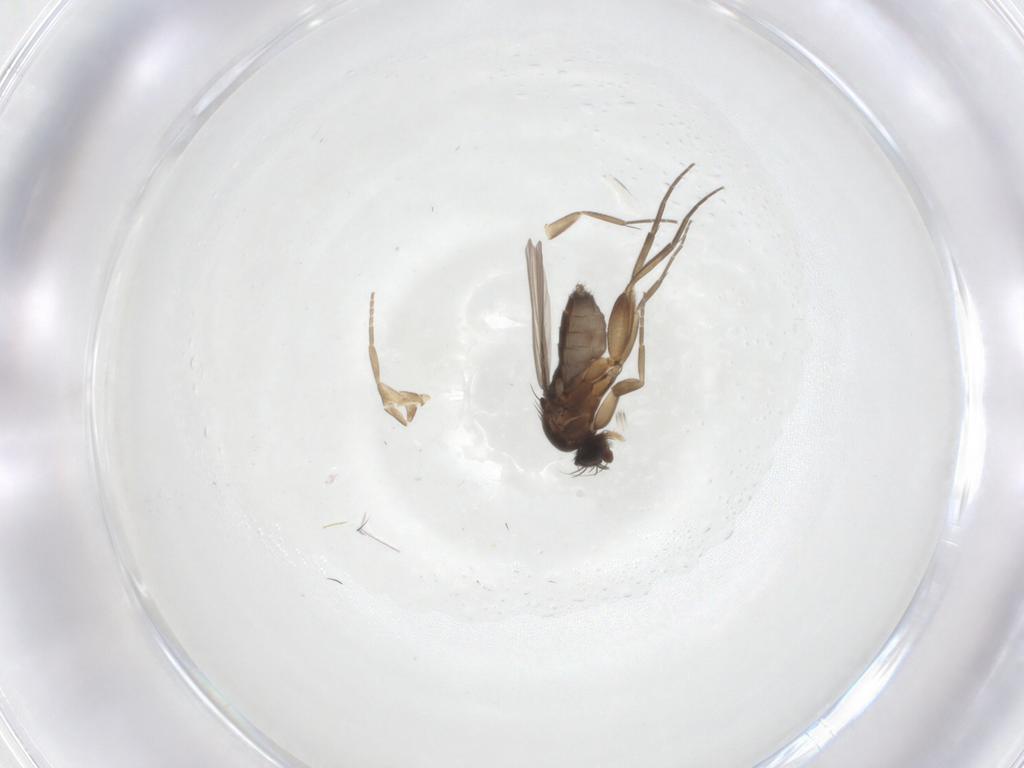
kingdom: Animalia
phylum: Arthropoda
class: Insecta
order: Diptera
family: Phoridae
